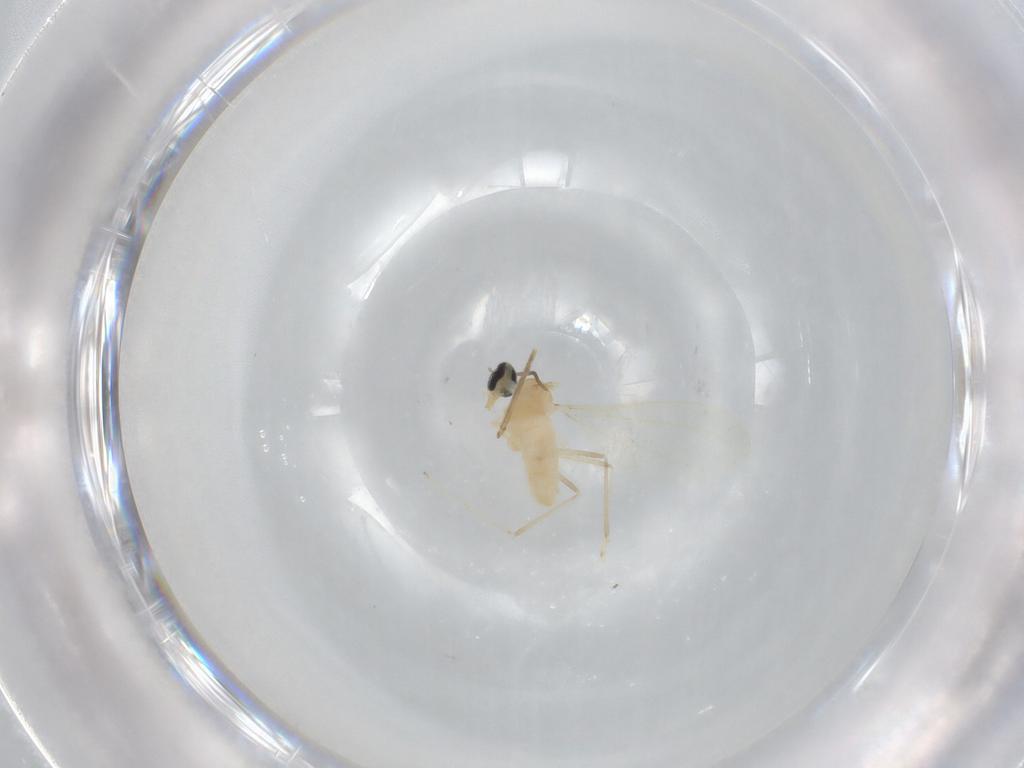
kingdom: Animalia
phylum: Arthropoda
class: Insecta
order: Diptera
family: Cecidomyiidae
